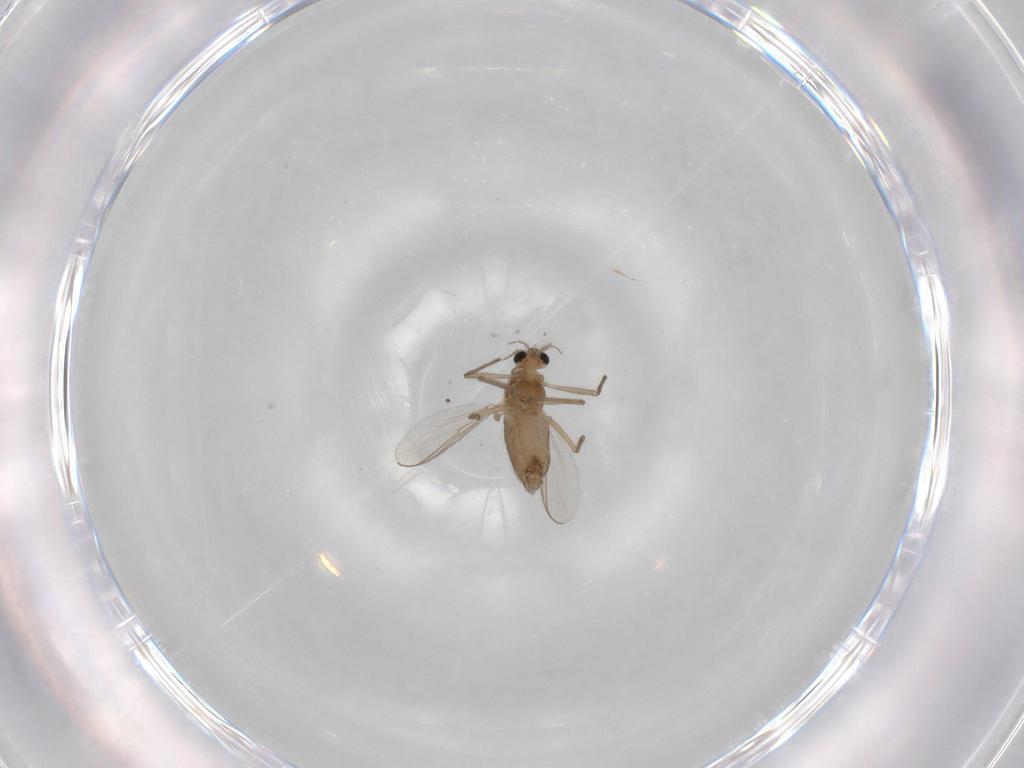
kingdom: Animalia
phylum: Arthropoda
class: Insecta
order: Diptera
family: Chironomidae
